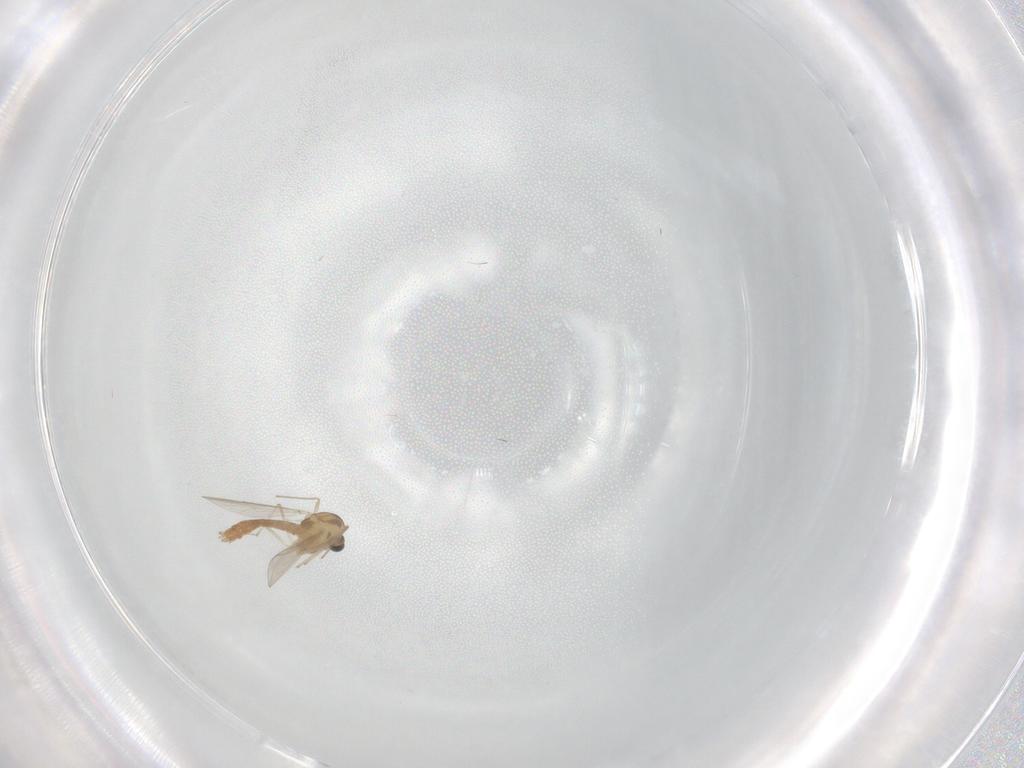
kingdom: Animalia
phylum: Arthropoda
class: Insecta
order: Diptera
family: Chironomidae
